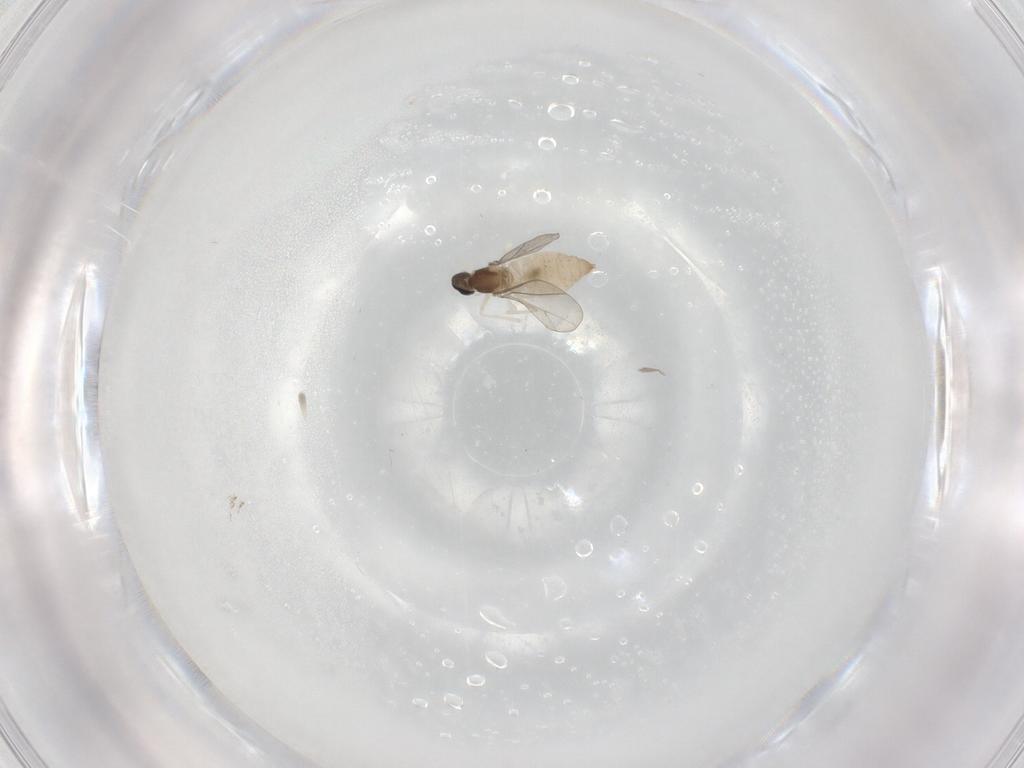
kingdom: Animalia
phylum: Arthropoda
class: Insecta
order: Diptera
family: Cecidomyiidae
